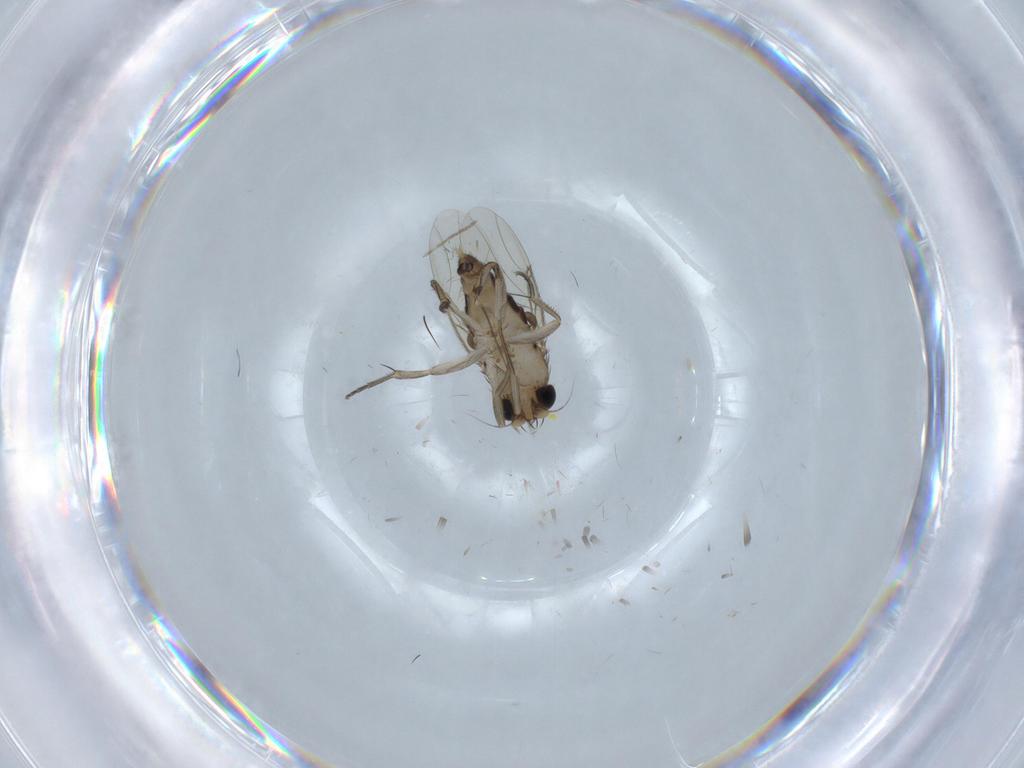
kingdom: Animalia
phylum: Arthropoda
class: Insecta
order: Diptera
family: Phoridae
